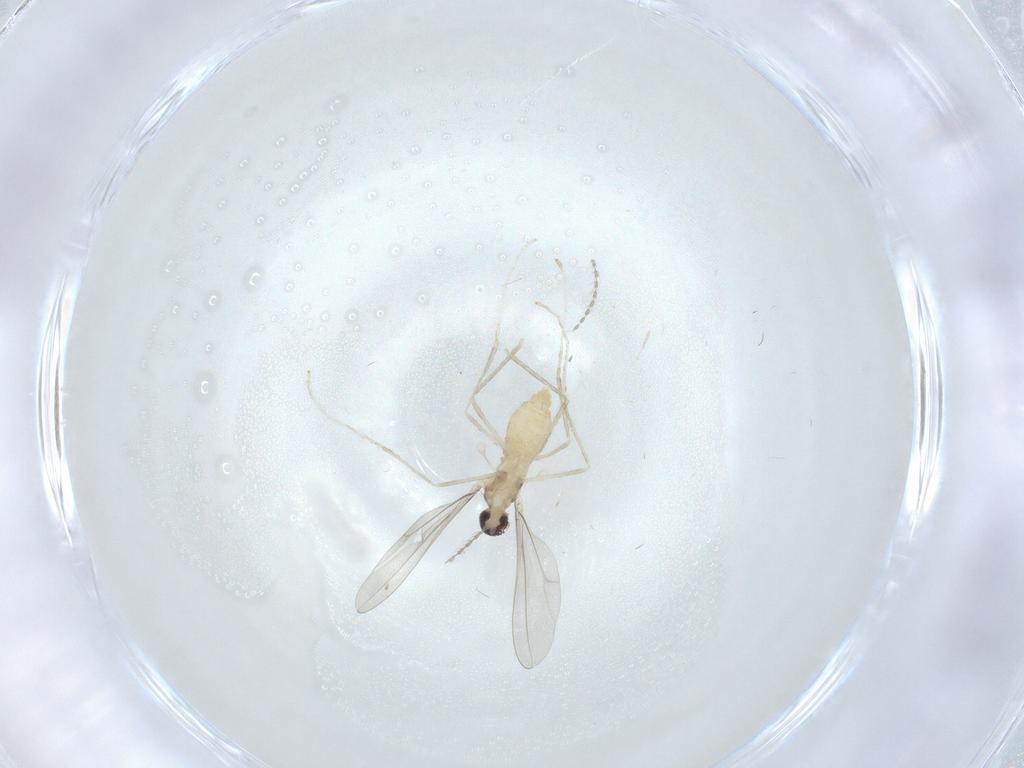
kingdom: Animalia
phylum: Arthropoda
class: Insecta
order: Diptera
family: Cecidomyiidae
